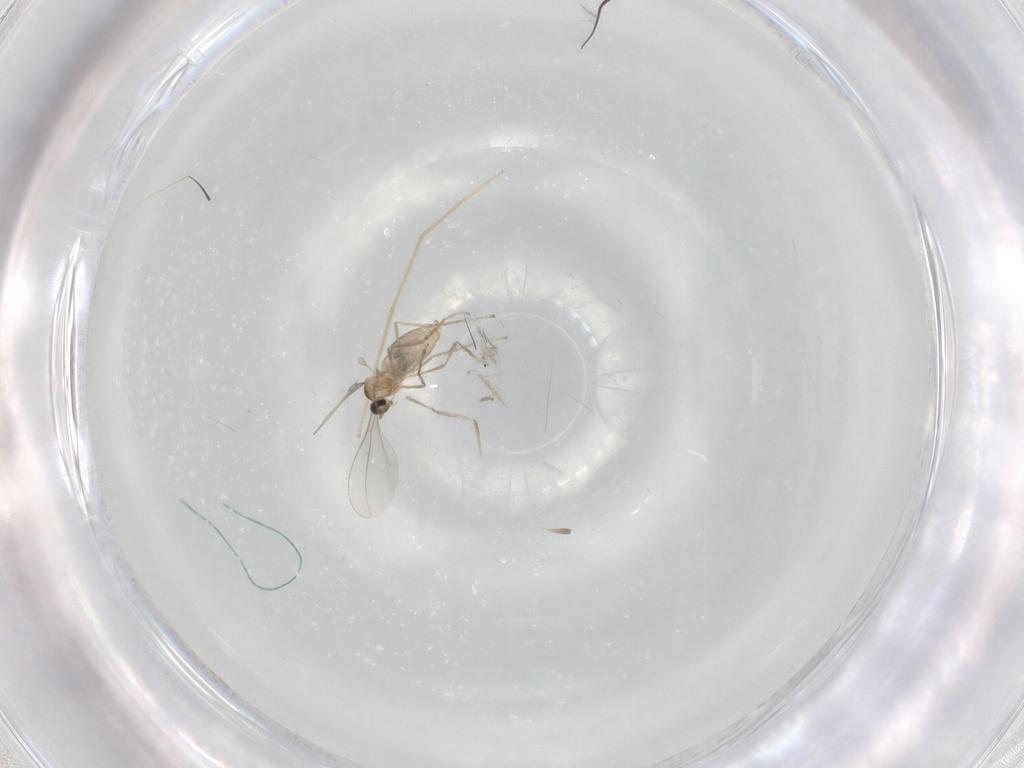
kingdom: Animalia
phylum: Arthropoda
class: Insecta
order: Diptera
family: Cecidomyiidae
